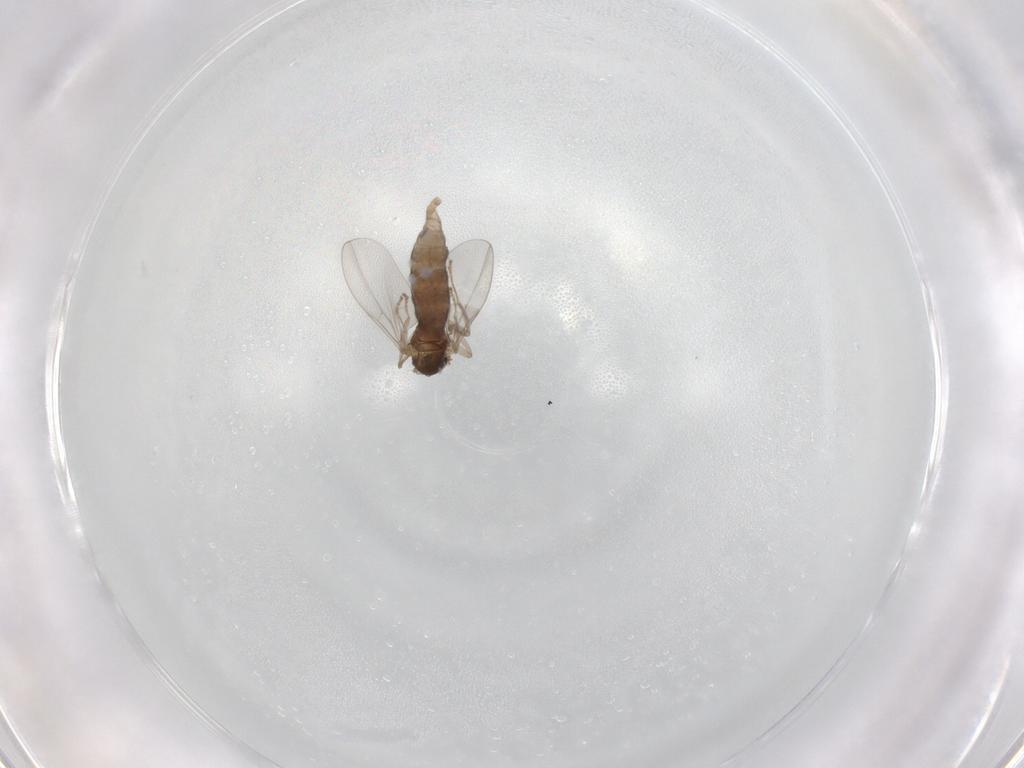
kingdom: Animalia
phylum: Arthropoda
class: Insecta
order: Diptera
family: Cecidomyiidae
